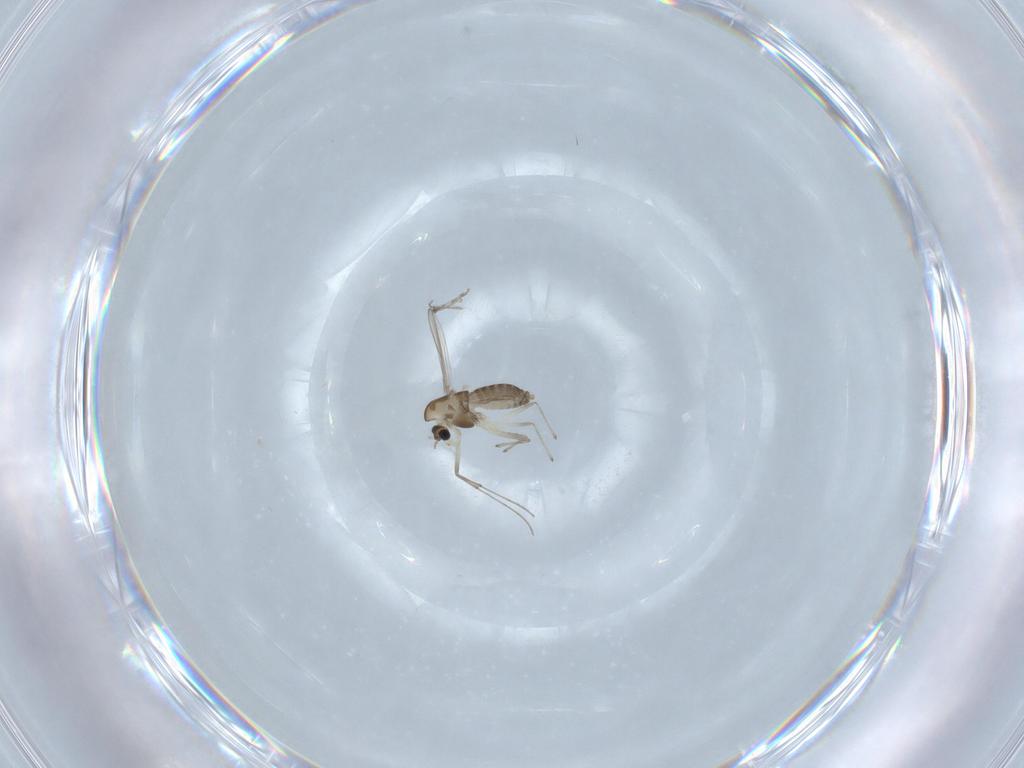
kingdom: Animalia
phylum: Arthropoda
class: Insecta
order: Diptera
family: Chironomidae
